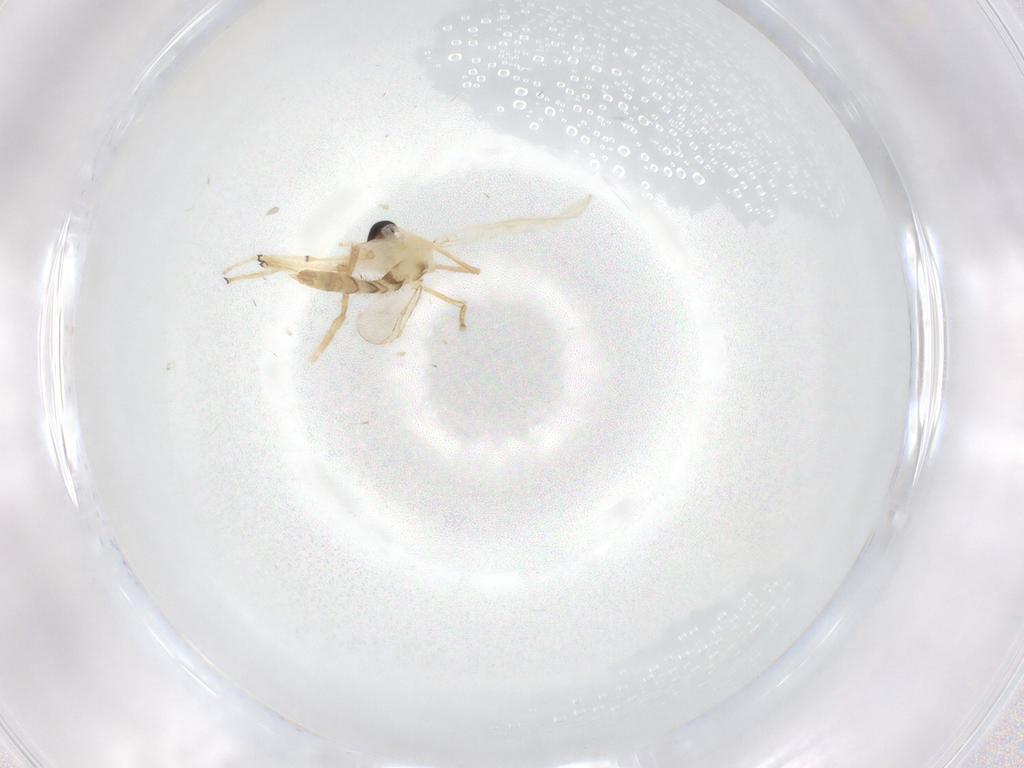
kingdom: Animalia
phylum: Arthropoda
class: Insecta
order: Diptera
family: Chironomidae
